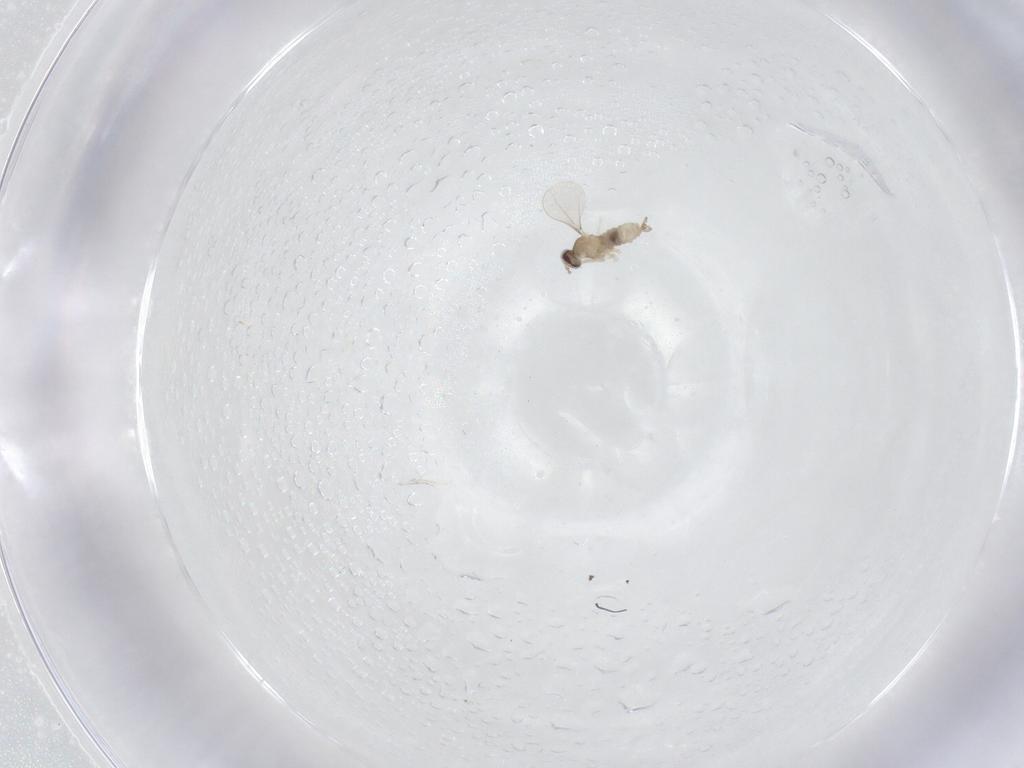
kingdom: Animalia
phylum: Arthropoda
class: Insecta
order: Diptera
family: Cecidomyiidae
